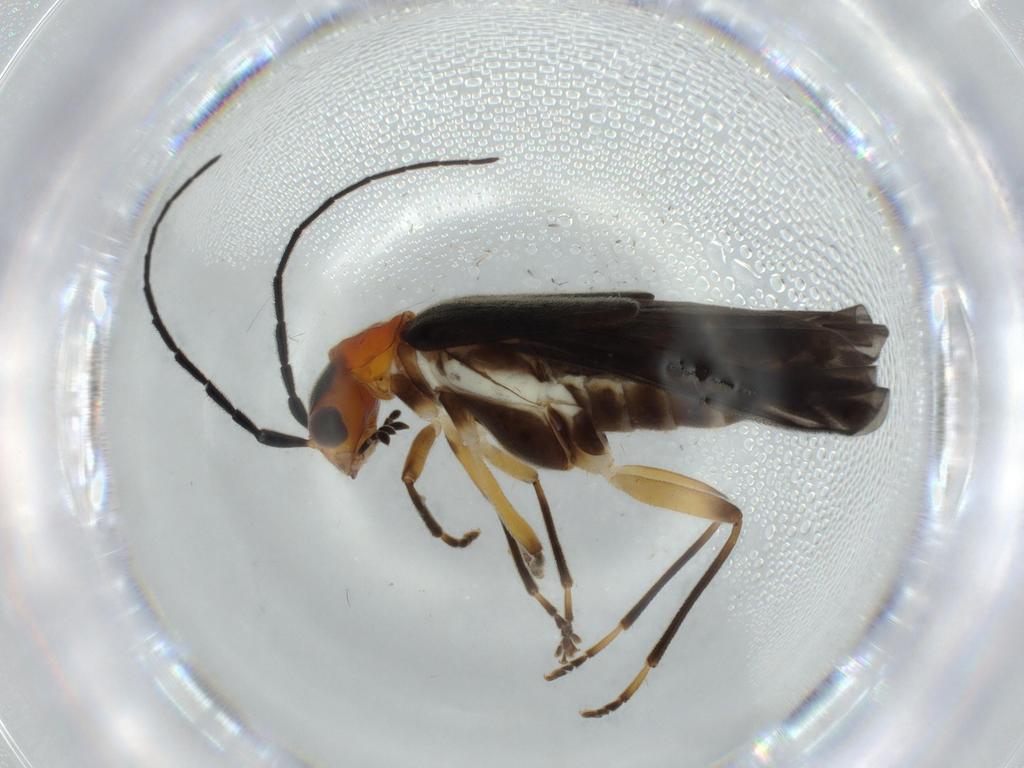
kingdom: Animalia
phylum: Arthropoda
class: Insecta
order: Coleoptera
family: Cantharidae
